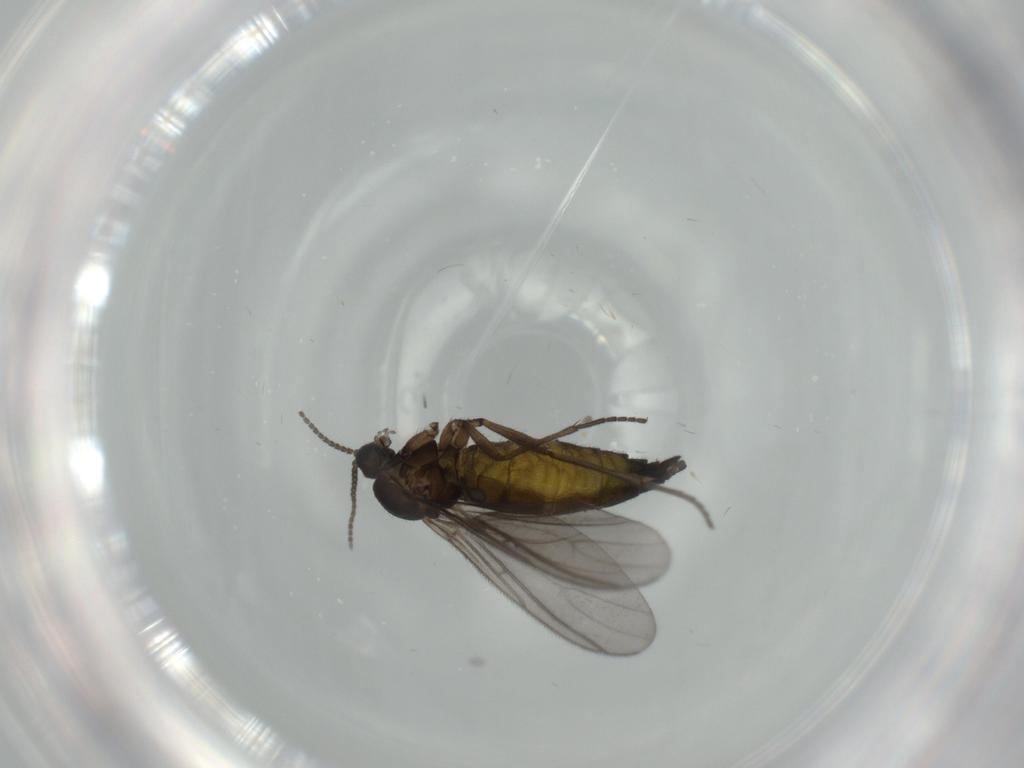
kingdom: Animalia
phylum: Arthropoda
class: Insecta
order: Diptera
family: Sciaridae
